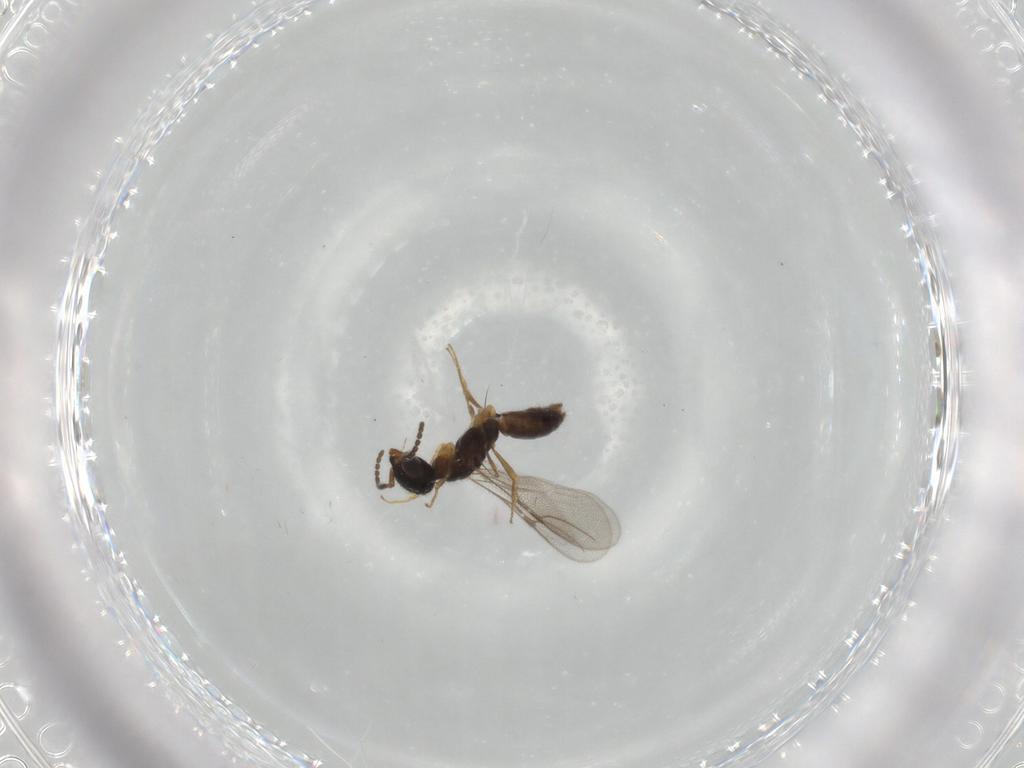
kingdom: Animalia
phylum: Arthropoda
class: Insecta
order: Hymenoptera
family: Bethylidae
